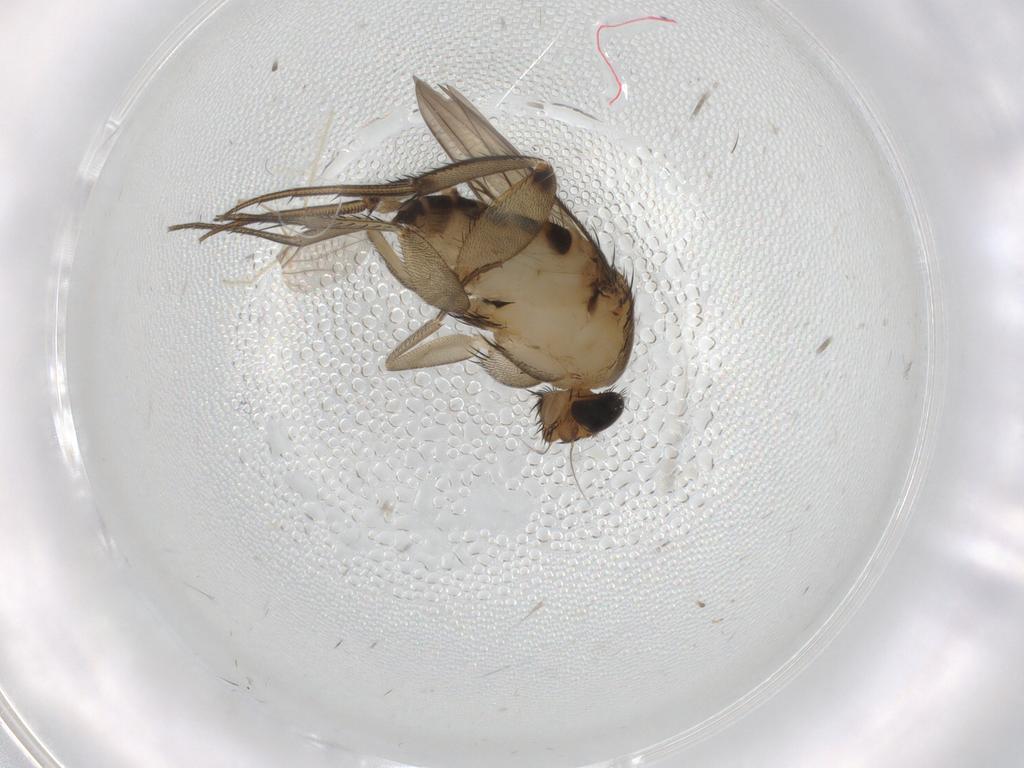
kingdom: Animalia
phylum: Arthropoda
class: Insecta
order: Diptera
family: Chironomidae
